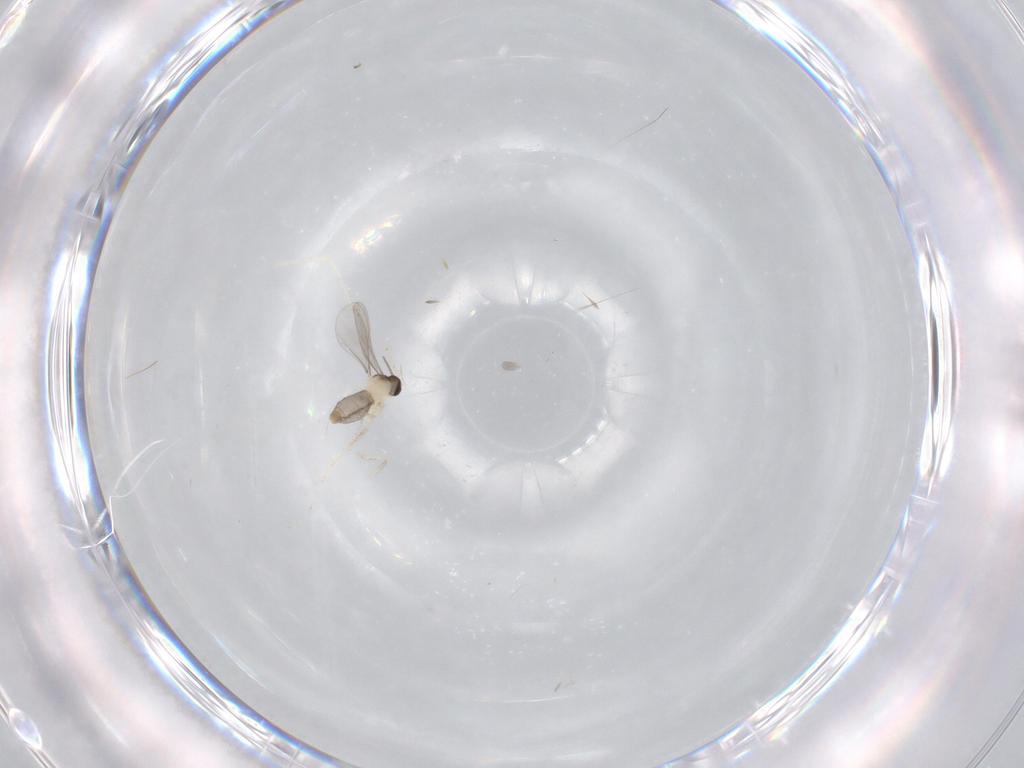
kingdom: Animalia
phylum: Arthropoda
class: Insecta
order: Diptera
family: Cecidomyiidae
